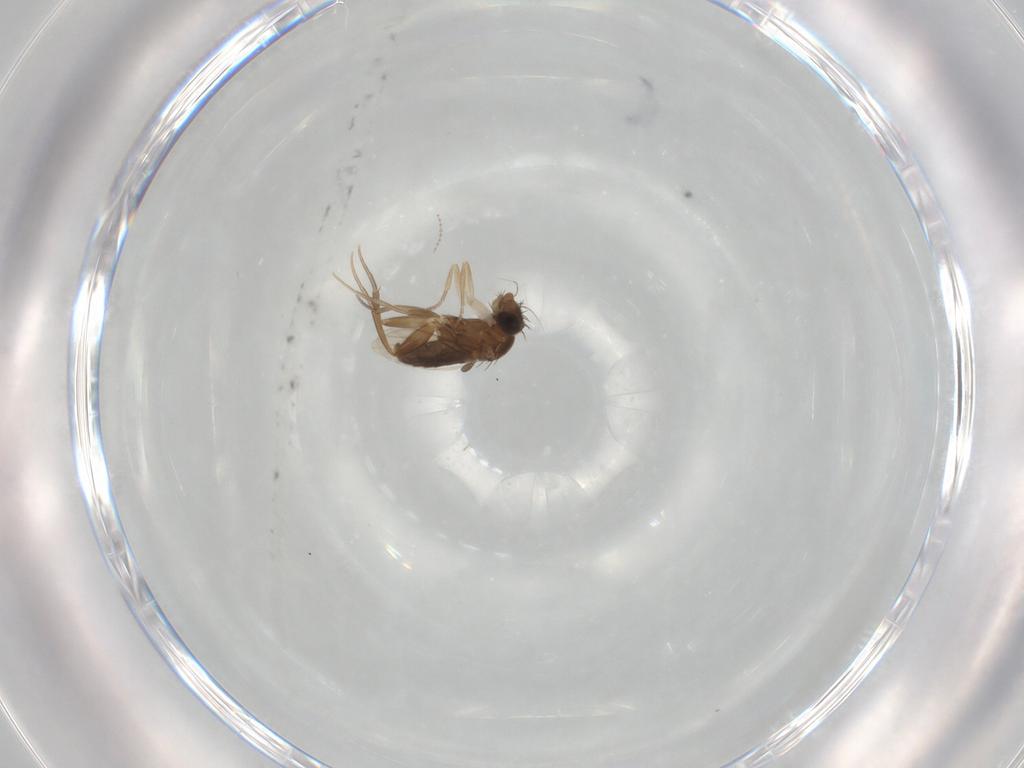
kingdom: Animalia
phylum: Arthropoda
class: Insecta
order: Diptera
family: Phoridae
